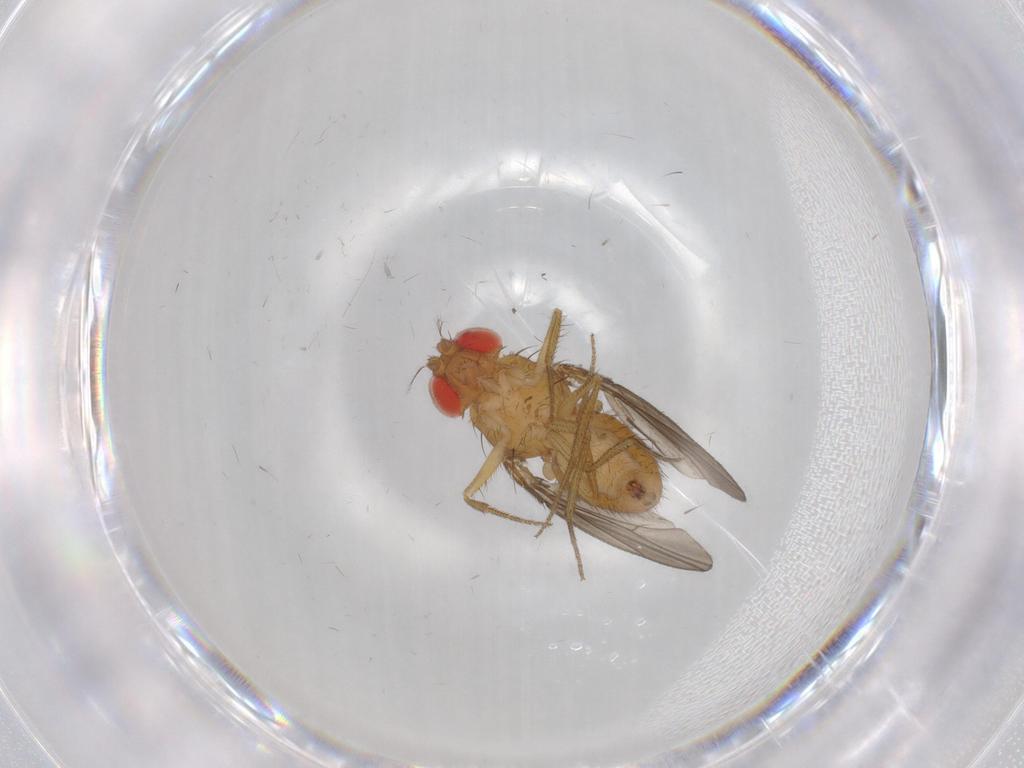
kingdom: Animalia
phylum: Arthropoda
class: Insecta
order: Diptera
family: Drosophilidae
